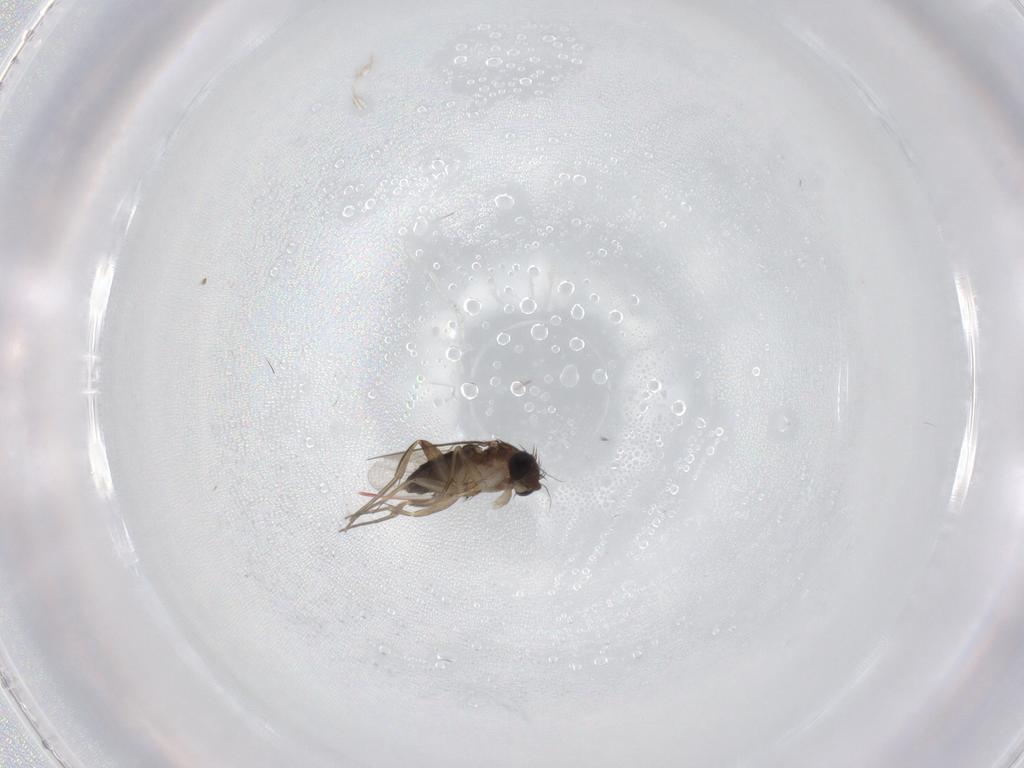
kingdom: Animalia
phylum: Arthropoda
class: Insecta
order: Diptera
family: Phoridae
